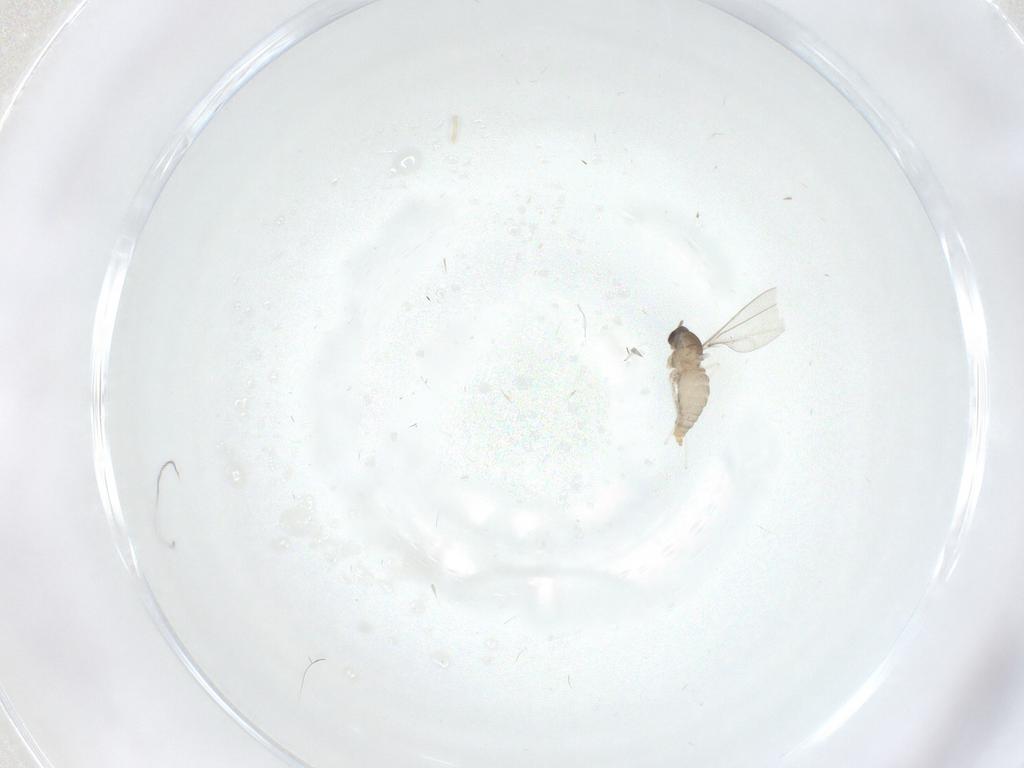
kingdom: Animalia
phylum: Arthropoda
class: Insecta
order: Diptera
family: Cecidomyiidae
